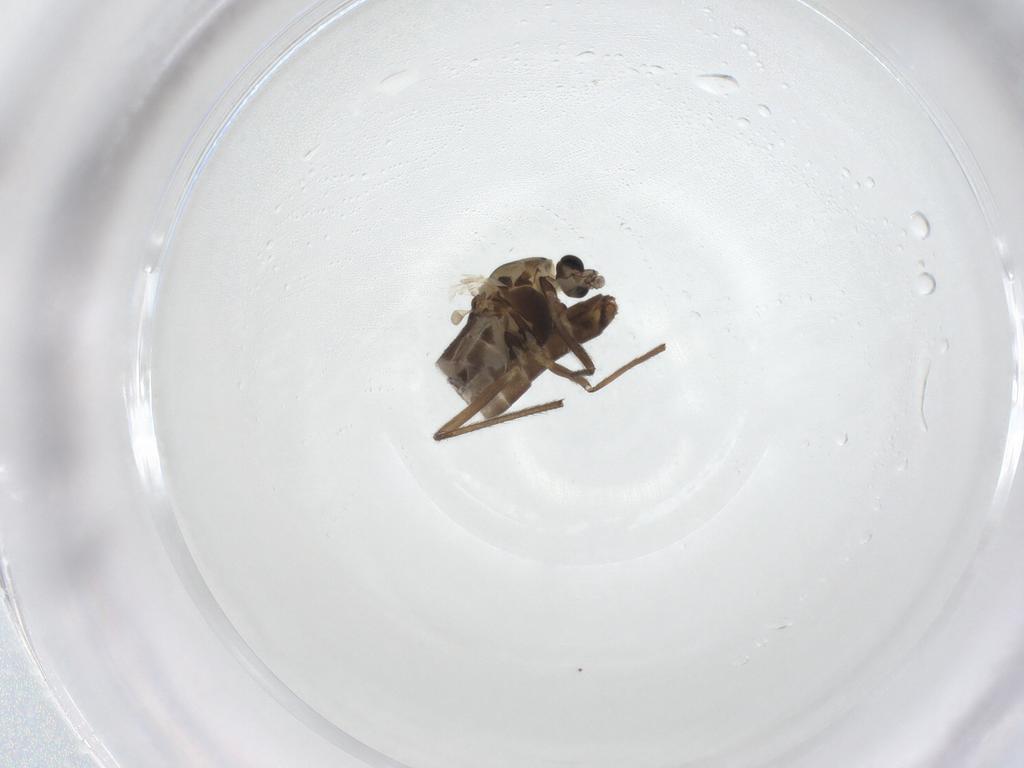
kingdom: Animalia
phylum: Arthropoda
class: Insecta
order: Diptera
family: Chironomidae
